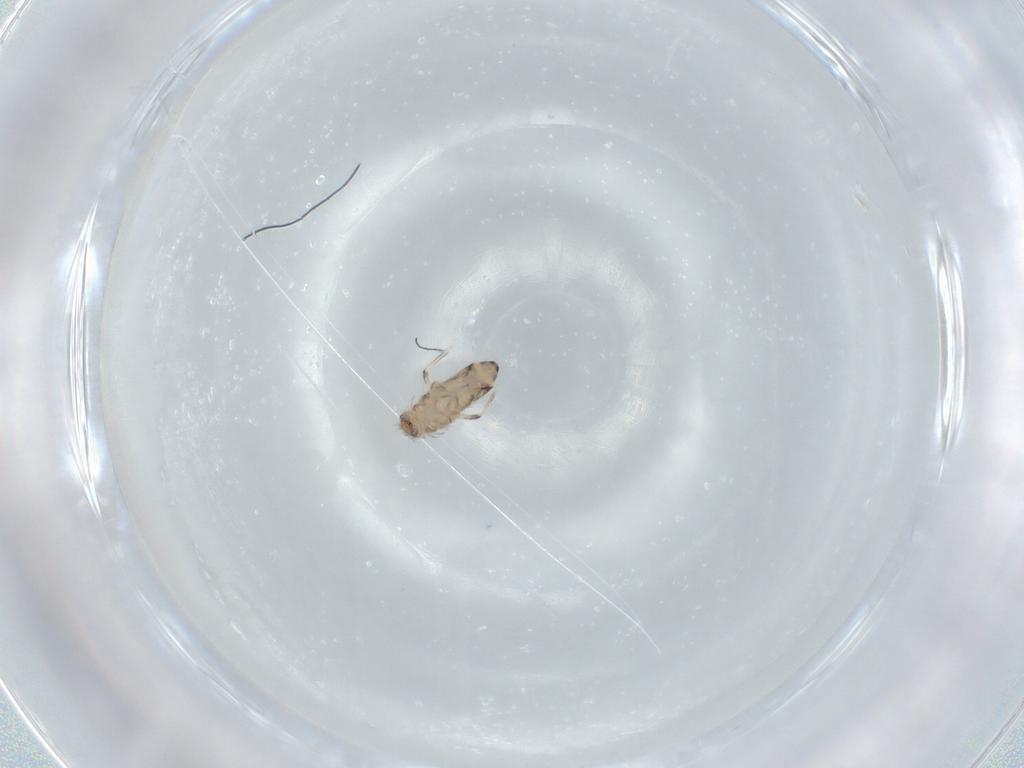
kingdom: Animalia
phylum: Arthropoda
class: Collembola
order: Entomobryomorpha
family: Entomobryidae
